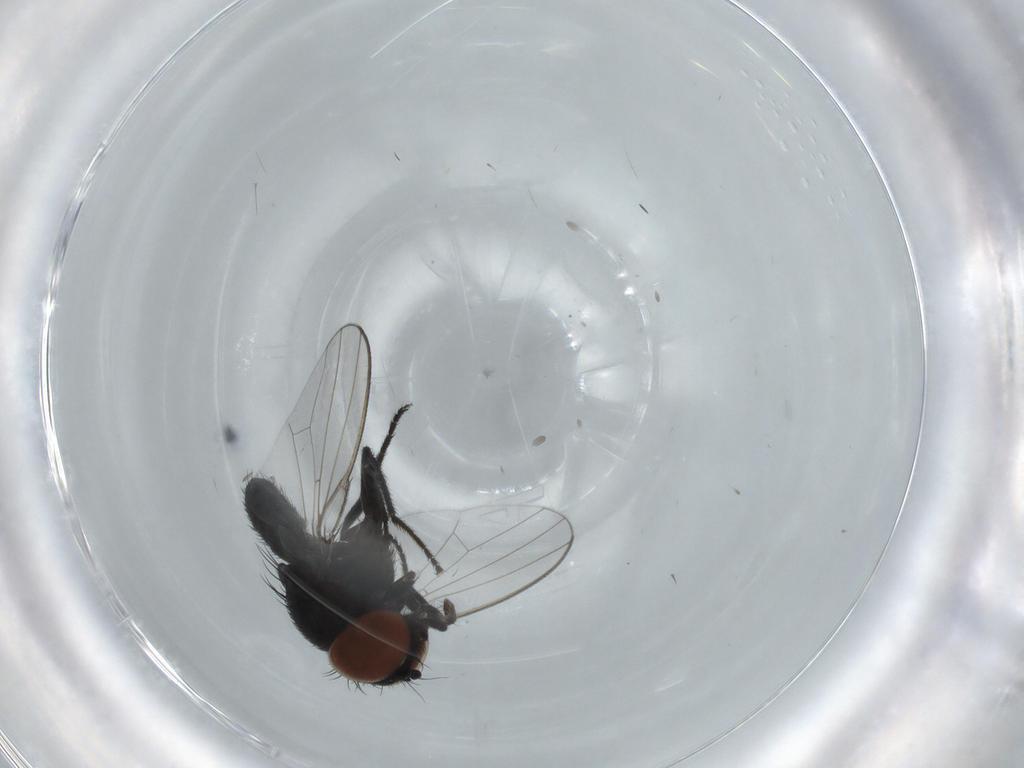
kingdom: Animalia
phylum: Arthropoda
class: Insecta
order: Diptera
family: Milichiidae
